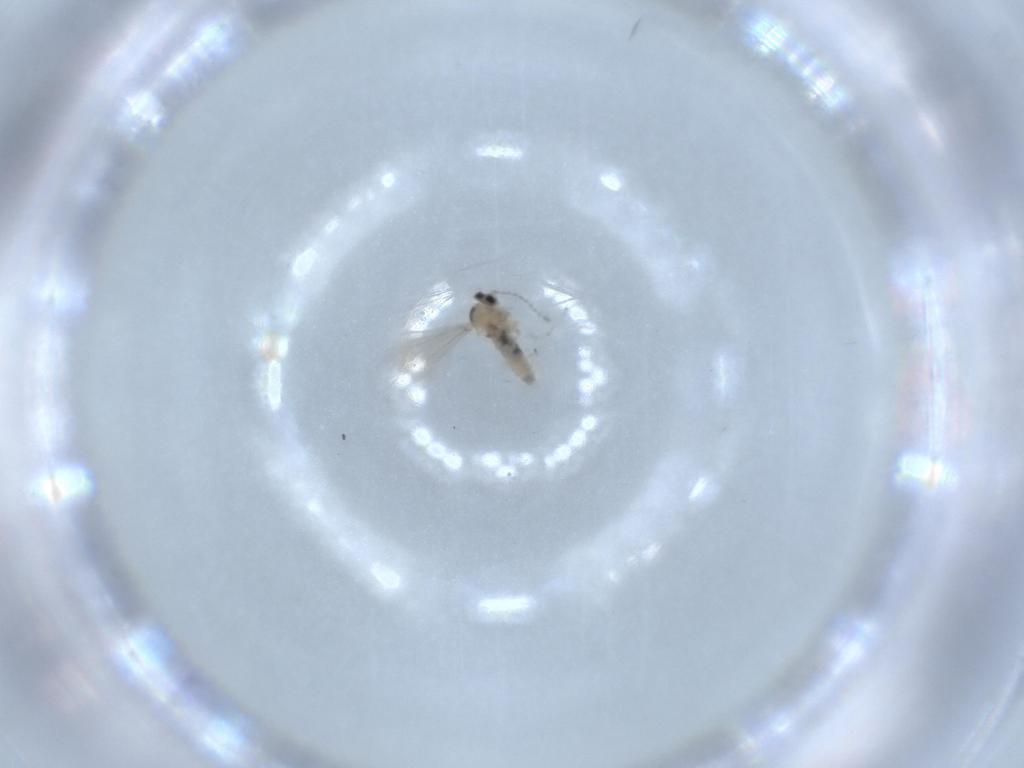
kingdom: Animalia
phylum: Arthropoda
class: Insecta
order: Diptera
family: Cecidomyiidae
